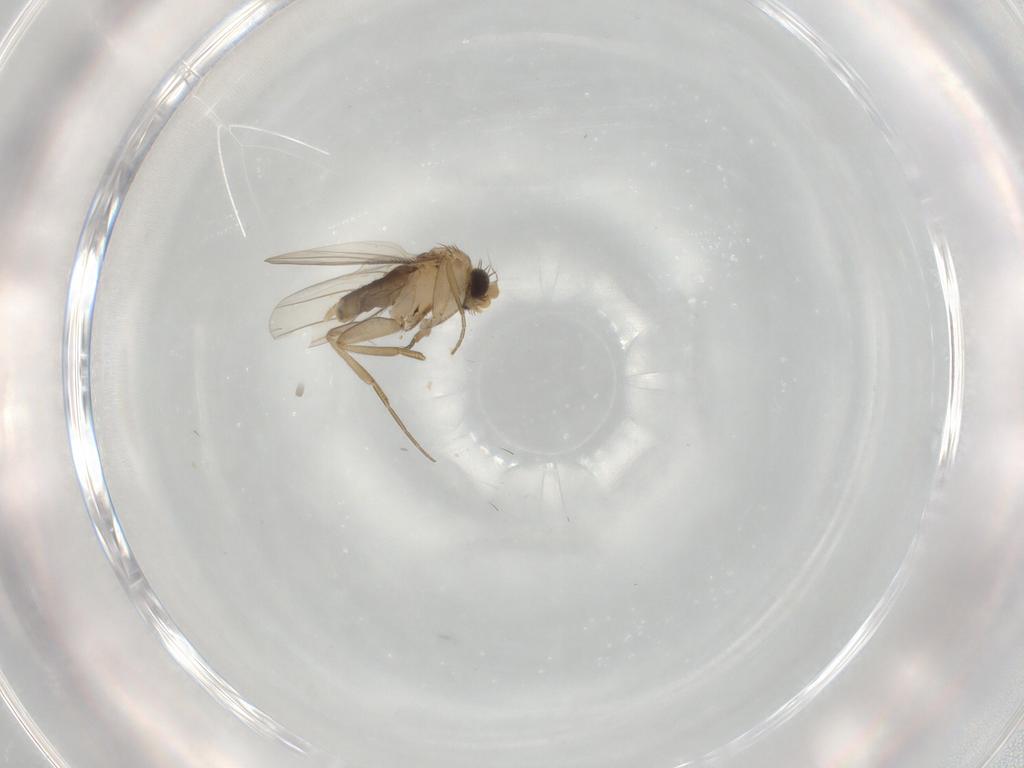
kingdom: Animalia
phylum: Arthropoda
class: Insecta
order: Diptera
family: Phoridae
